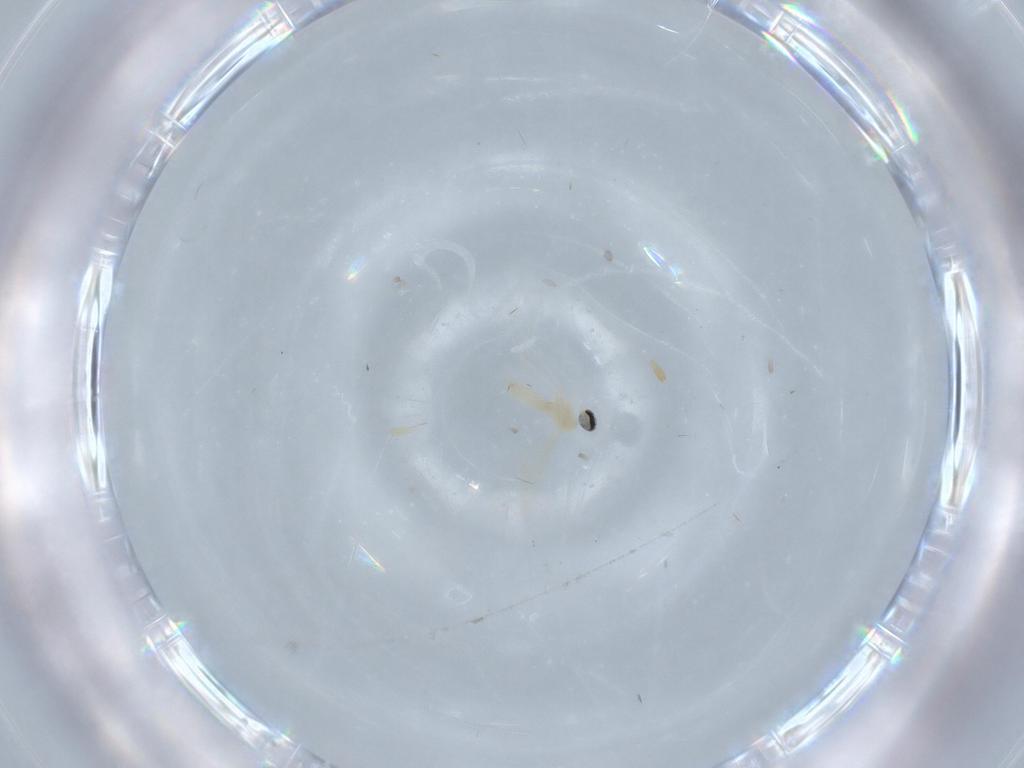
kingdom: Animalia
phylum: Arthropoda
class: Insecta
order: Diptera
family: Cecidomyiidae
